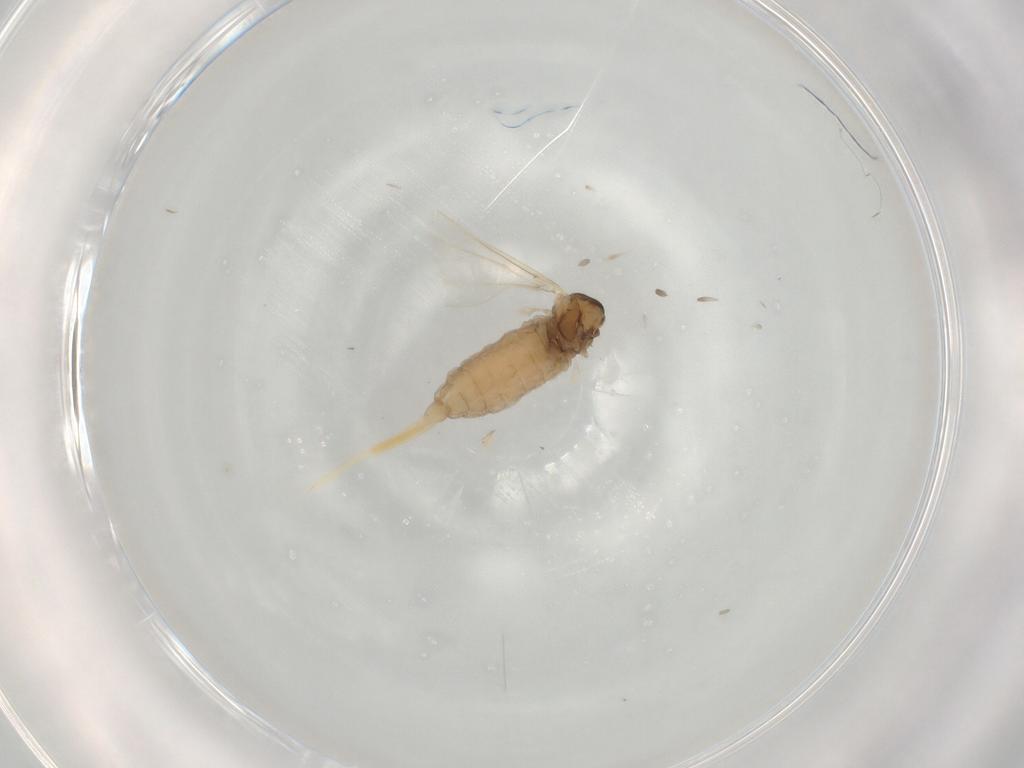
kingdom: Animalia
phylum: Arthropoda
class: Insecta
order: Diptera
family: Cecidomyiidae
